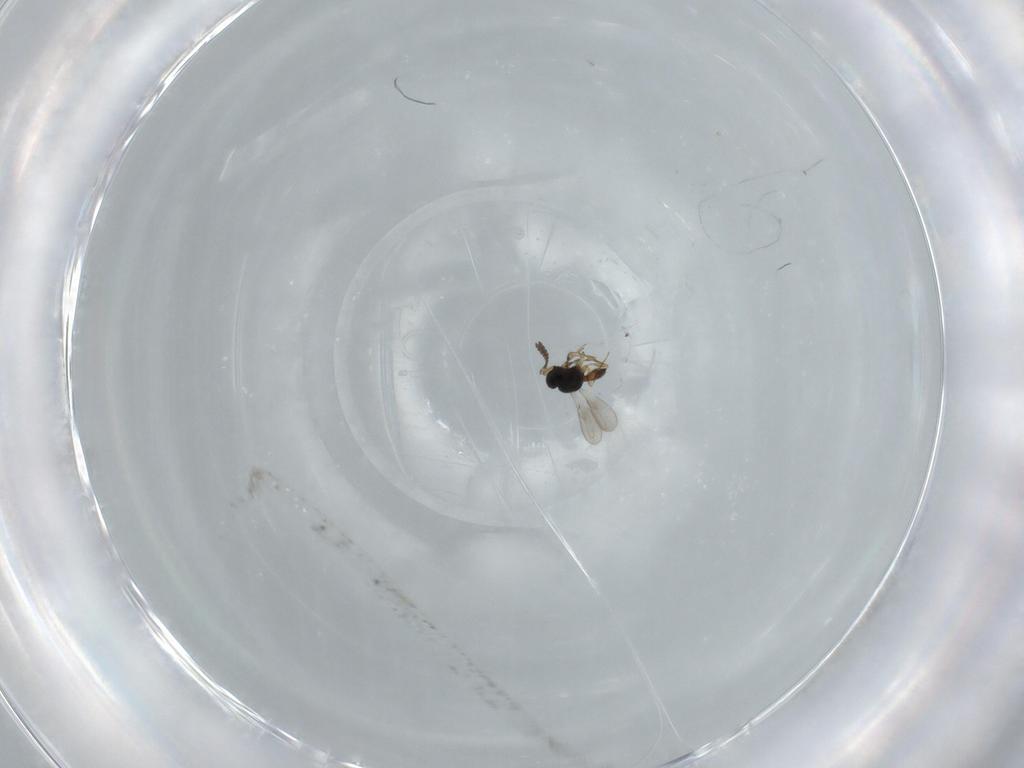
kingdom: Animalia
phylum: Arthropoda
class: Insecta
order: Hymenoptera
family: Scelionidae
